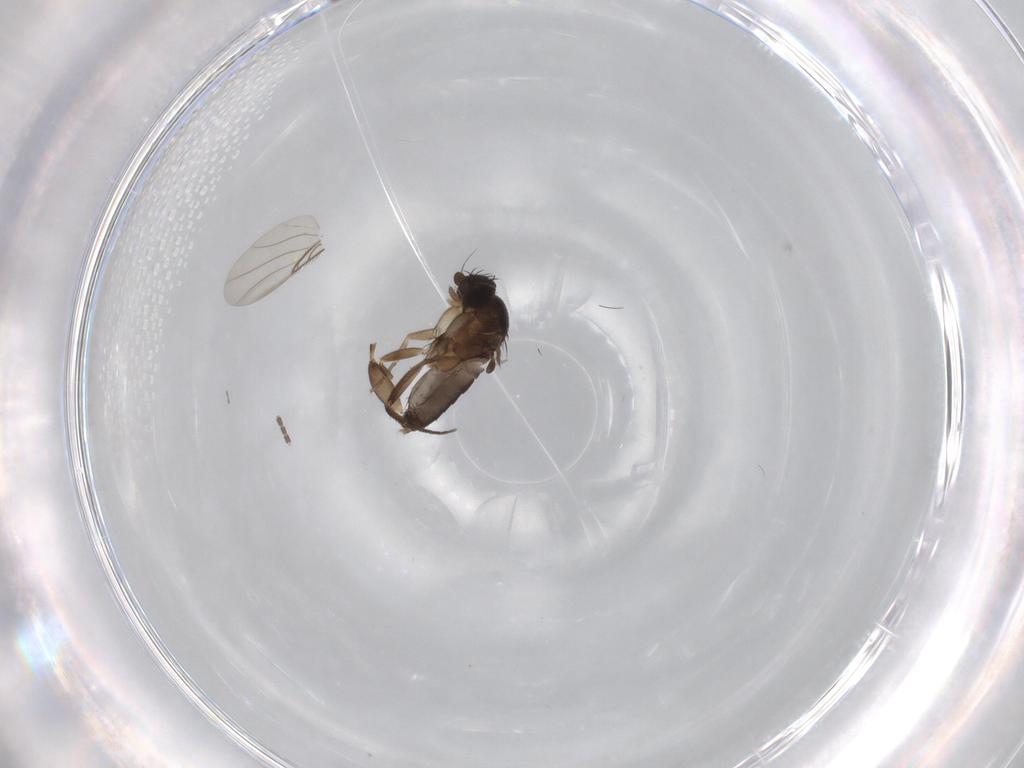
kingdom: Animalia
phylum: Arthropoda
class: Insecta
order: Diptera
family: Phoridae
